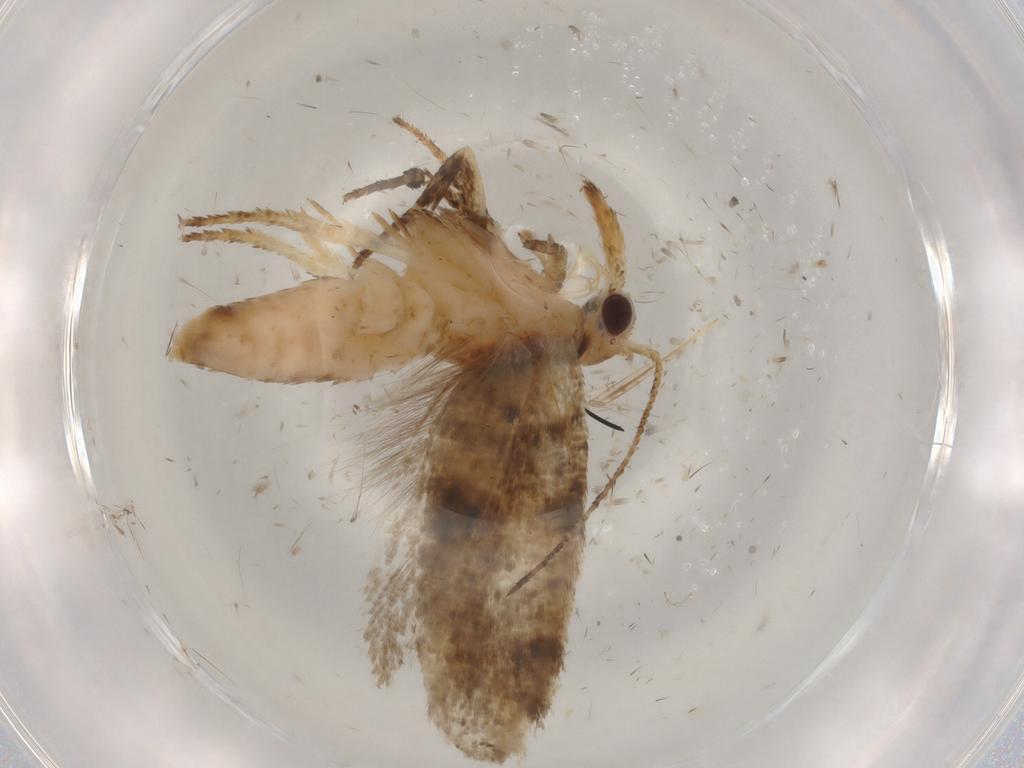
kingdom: Animalia
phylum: Arthropoda
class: Insecta
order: Lepidoptera
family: Ypsolophidae
